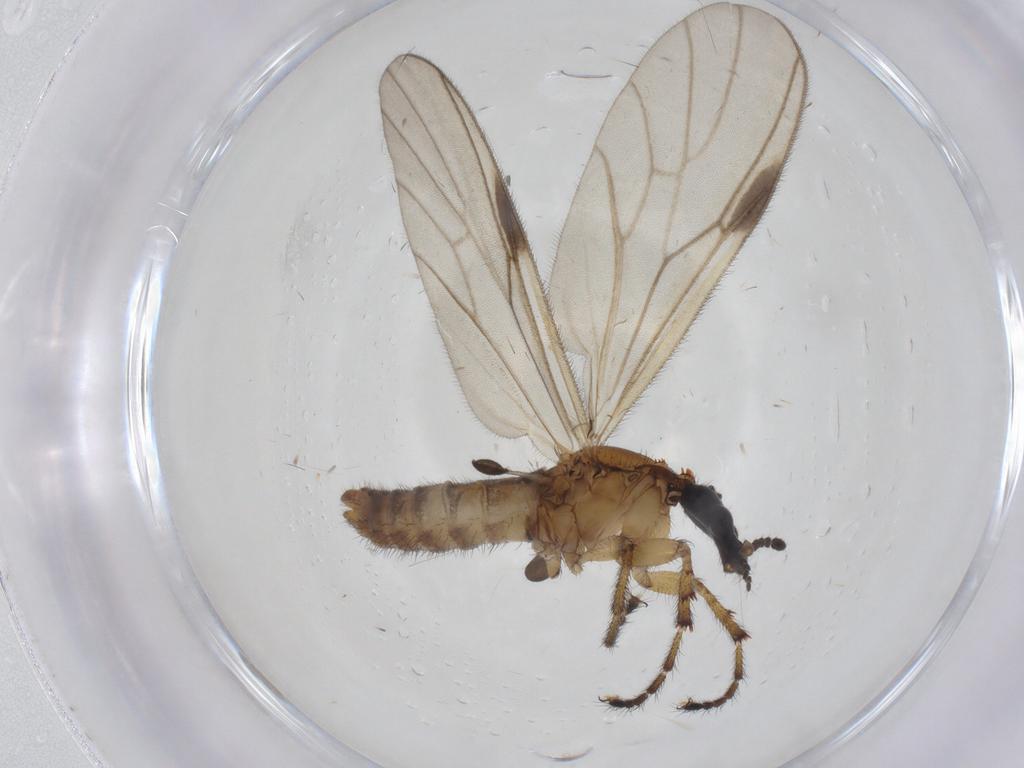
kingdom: Animalia
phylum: Arthropoda
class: Insecta
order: Diptera
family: Bibionidae
